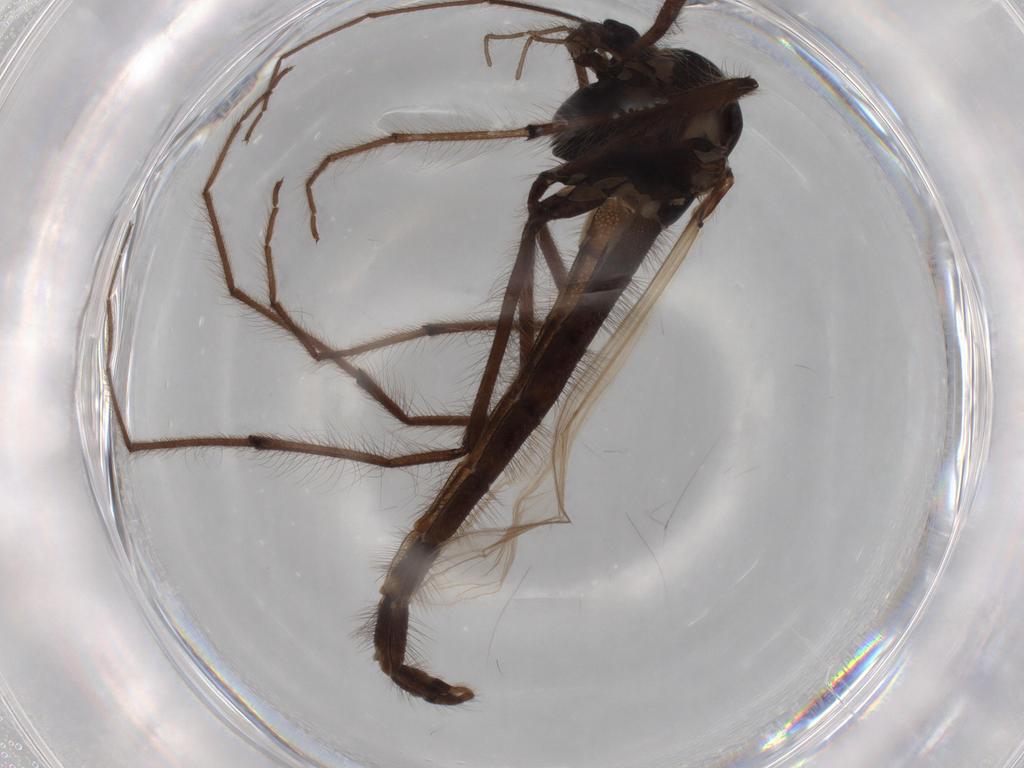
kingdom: Animalia
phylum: Arthropoda
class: Insecta
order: Diptera
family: Chironomidae
